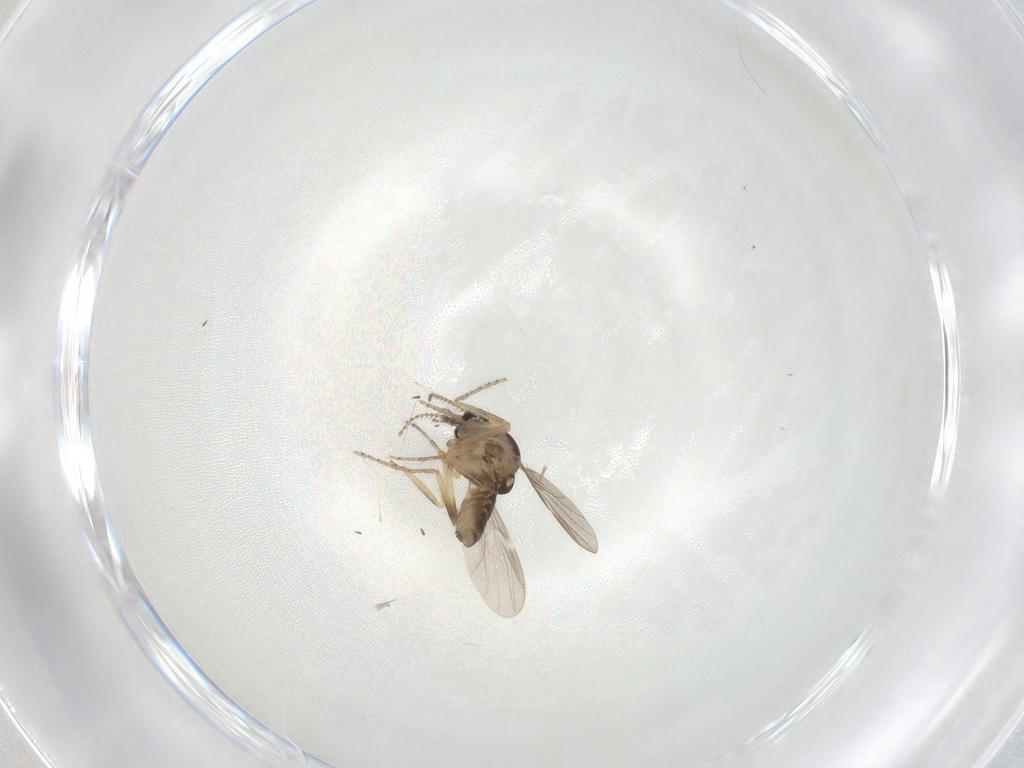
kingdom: Animalia
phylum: Arthropoda
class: Insecta
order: Diptera
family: Ceratopogonidae
